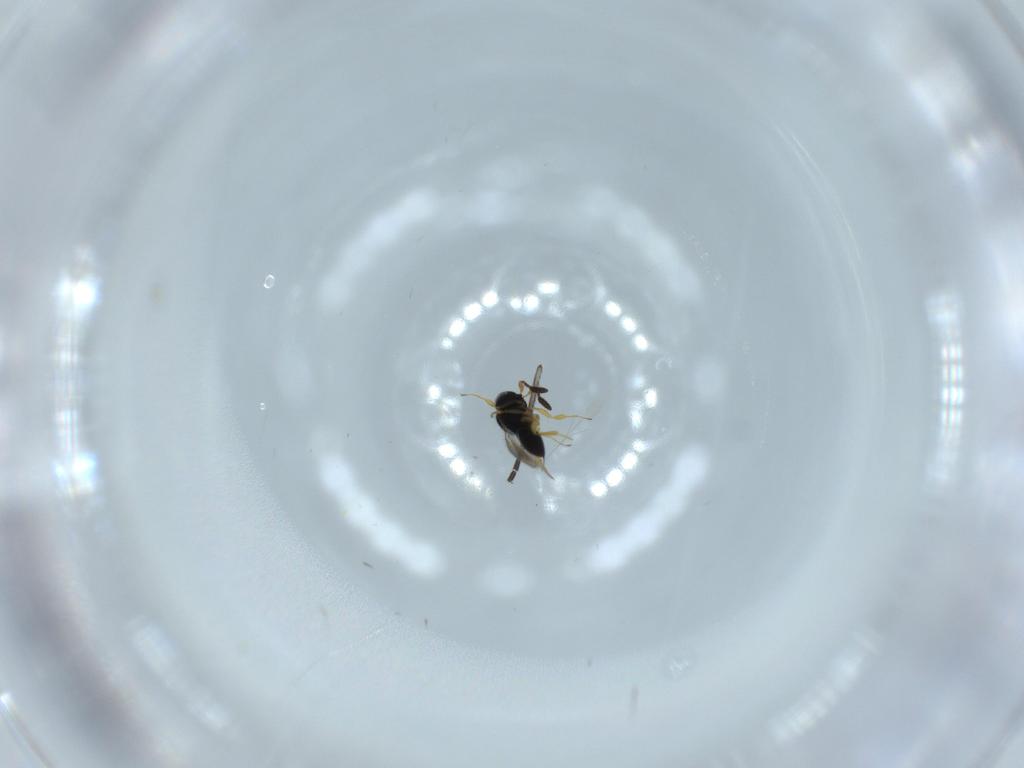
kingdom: Animalia
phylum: Arthropoda
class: Insecta
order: Hymenoptera
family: Scelionidae
